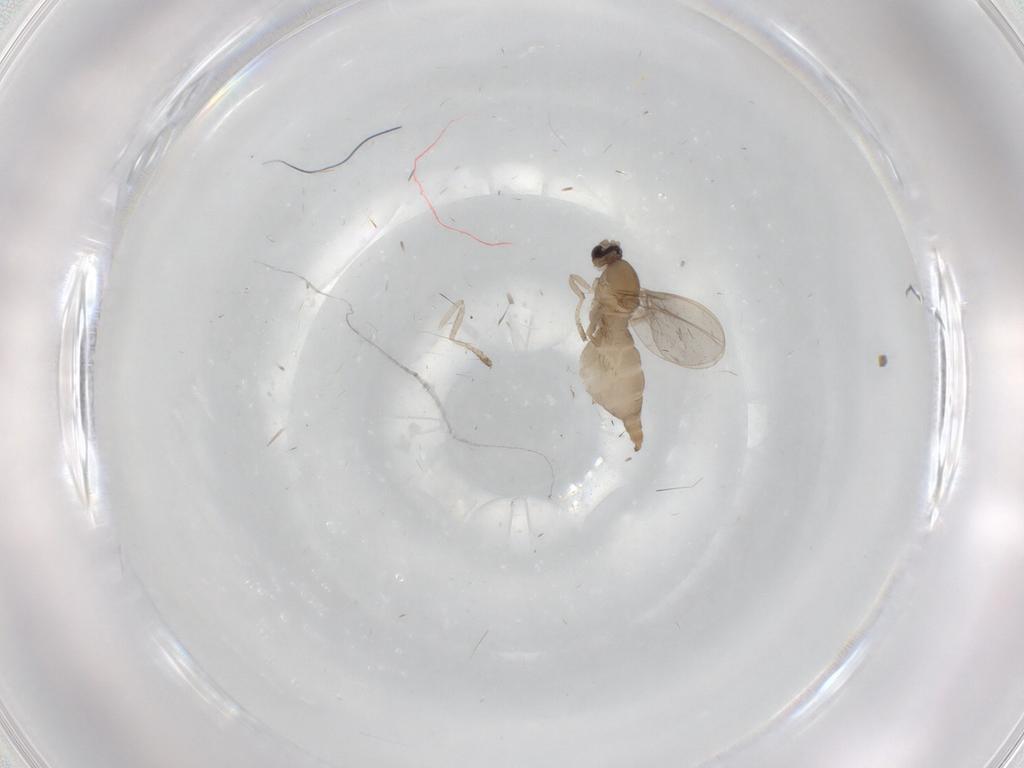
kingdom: Animalia
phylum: Arthropoda
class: Insecta
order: Diptera
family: Cecidomyiidae
